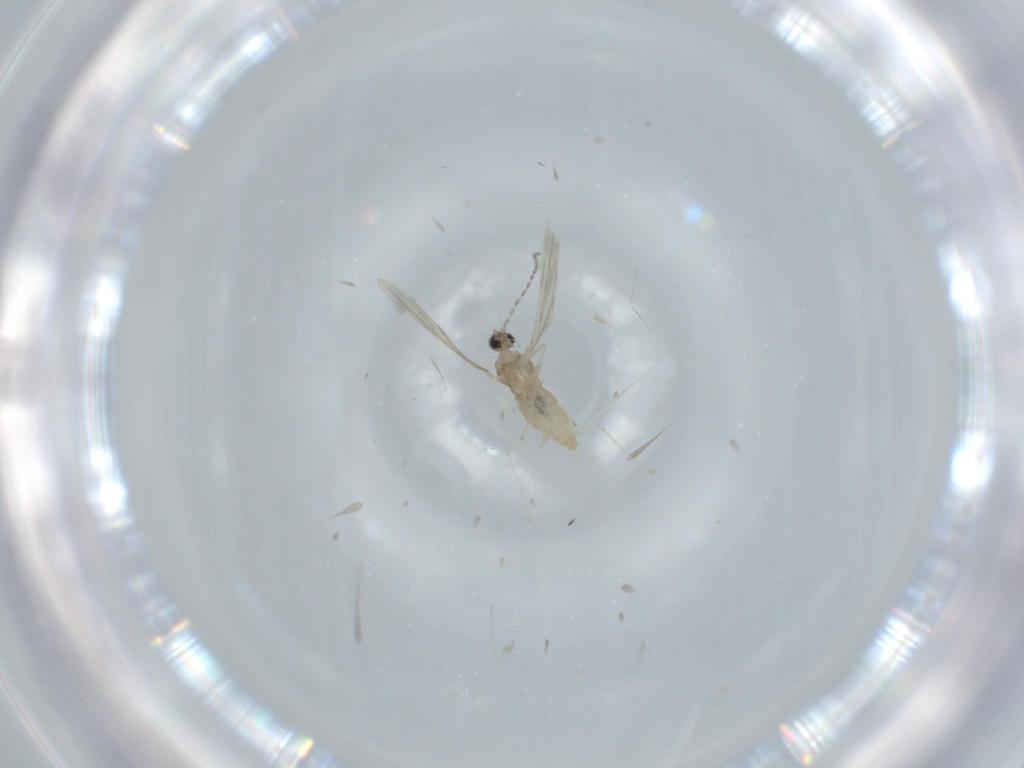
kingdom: Animalia
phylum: Arthropoda
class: Insecta
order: Diptera
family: Cecidomyiidae
